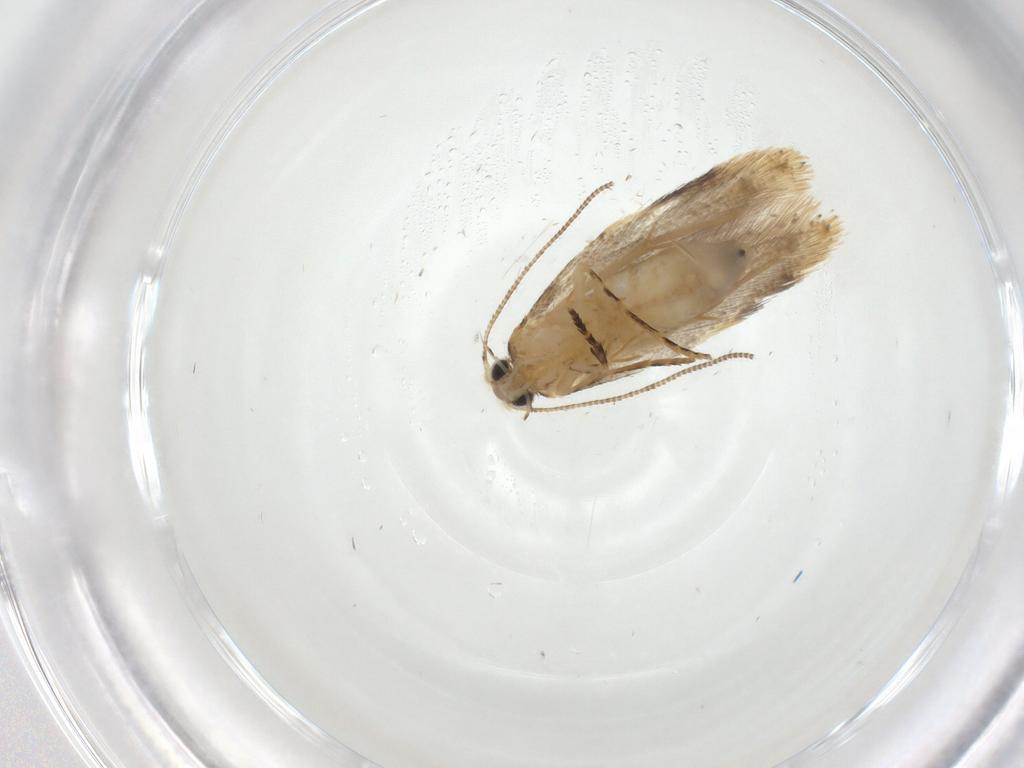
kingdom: Animalia
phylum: Arthropoda
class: Insecta
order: Lepidoptera
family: Tineidae
